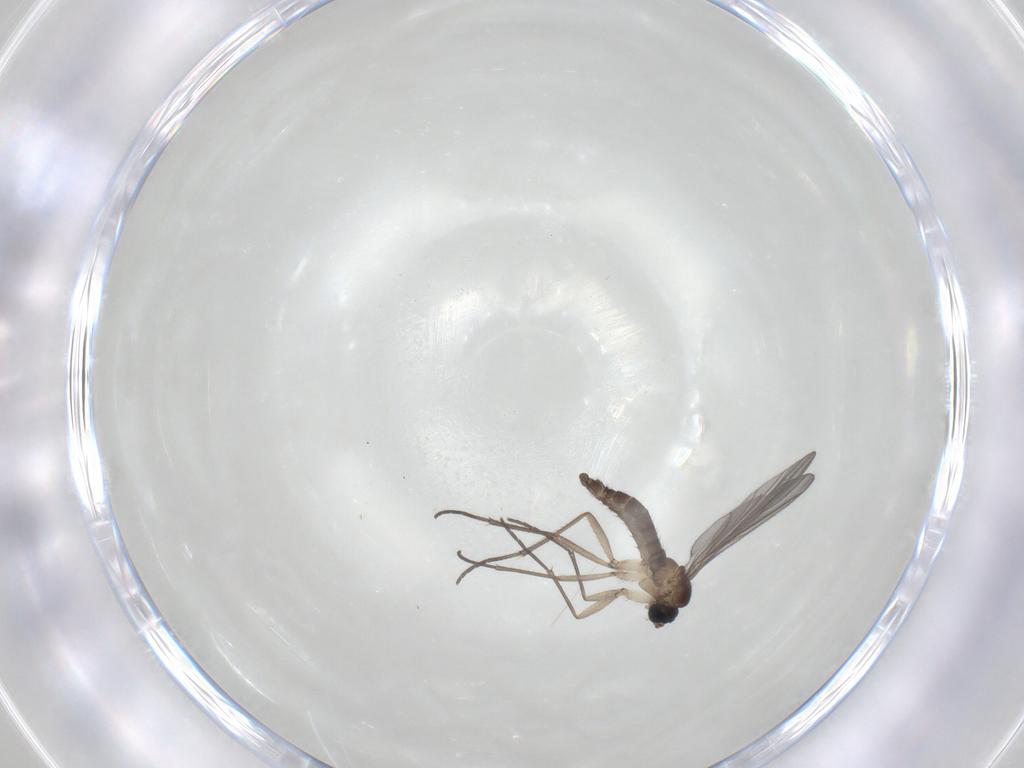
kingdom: Animalia
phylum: Arthropoda
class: Insecta
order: Diptera
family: Sciaridae
